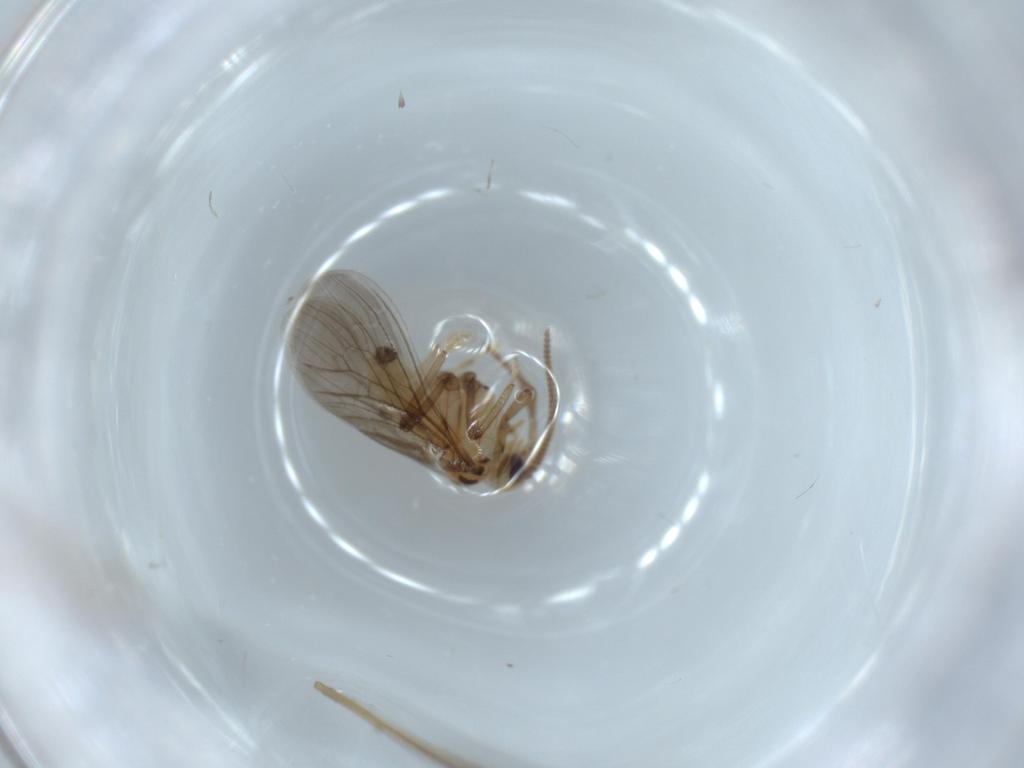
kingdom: Animalia
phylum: Arthropoda
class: Insecta
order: Neuroptera
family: Coniopterygidae
